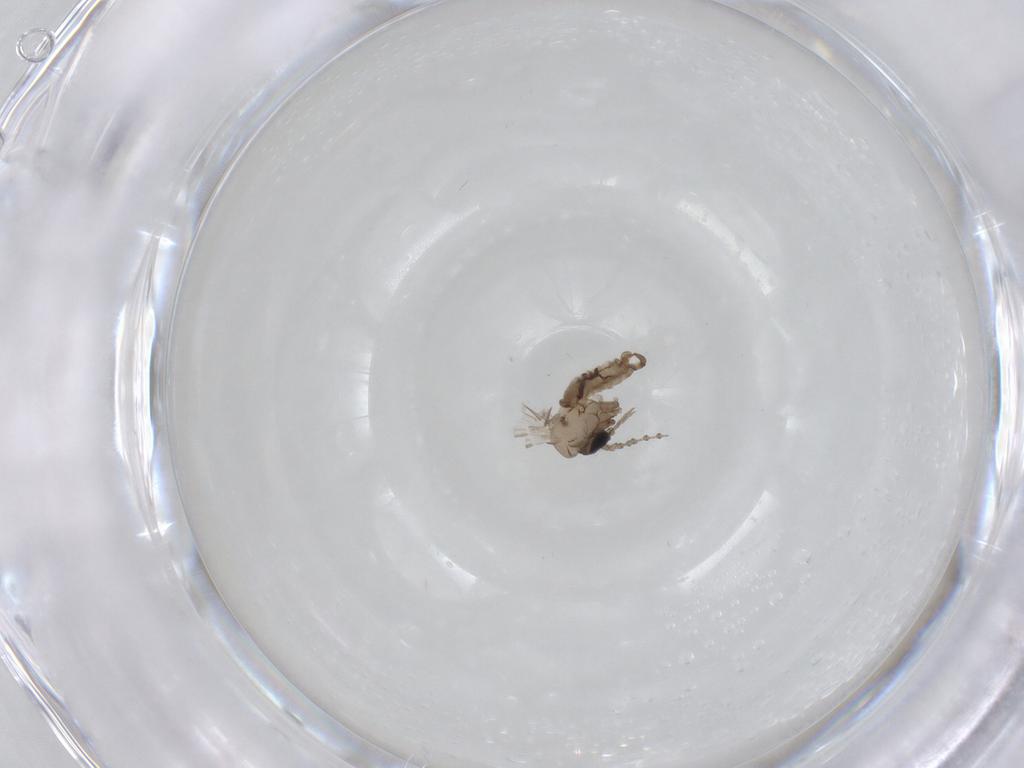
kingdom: Animalia
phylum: Arthropoda
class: Insecta
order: Diptera
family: Psychodidae
